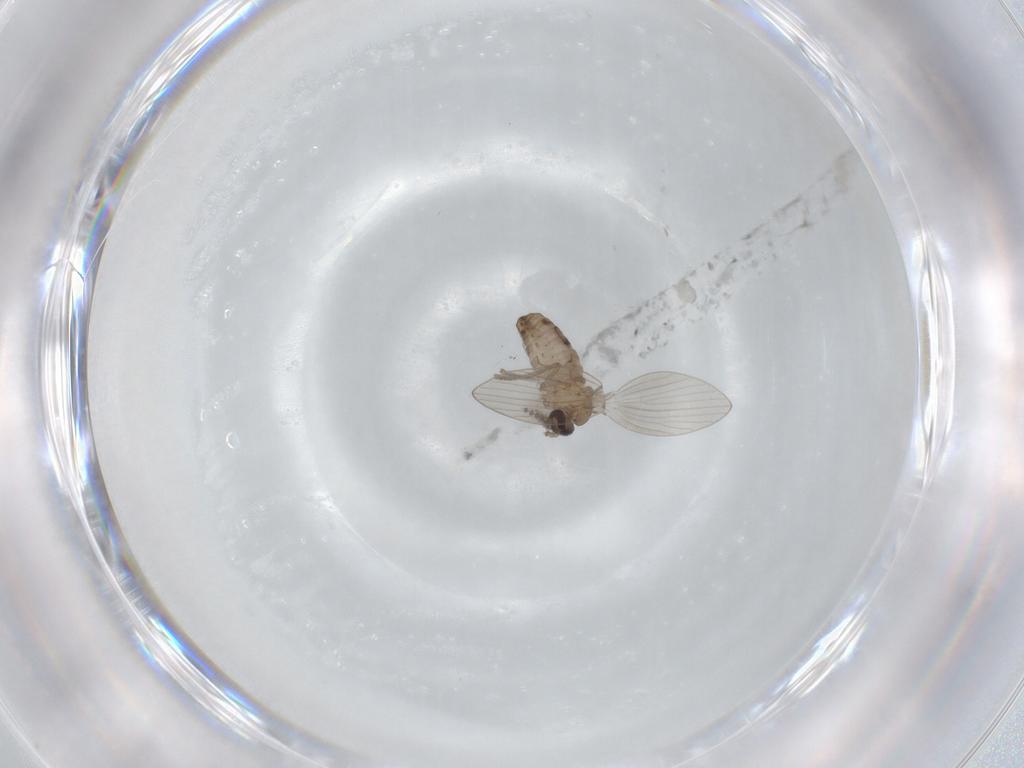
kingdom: Animalia
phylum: Arthropoda
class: Insecta
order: Diptera
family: Psychodidae
